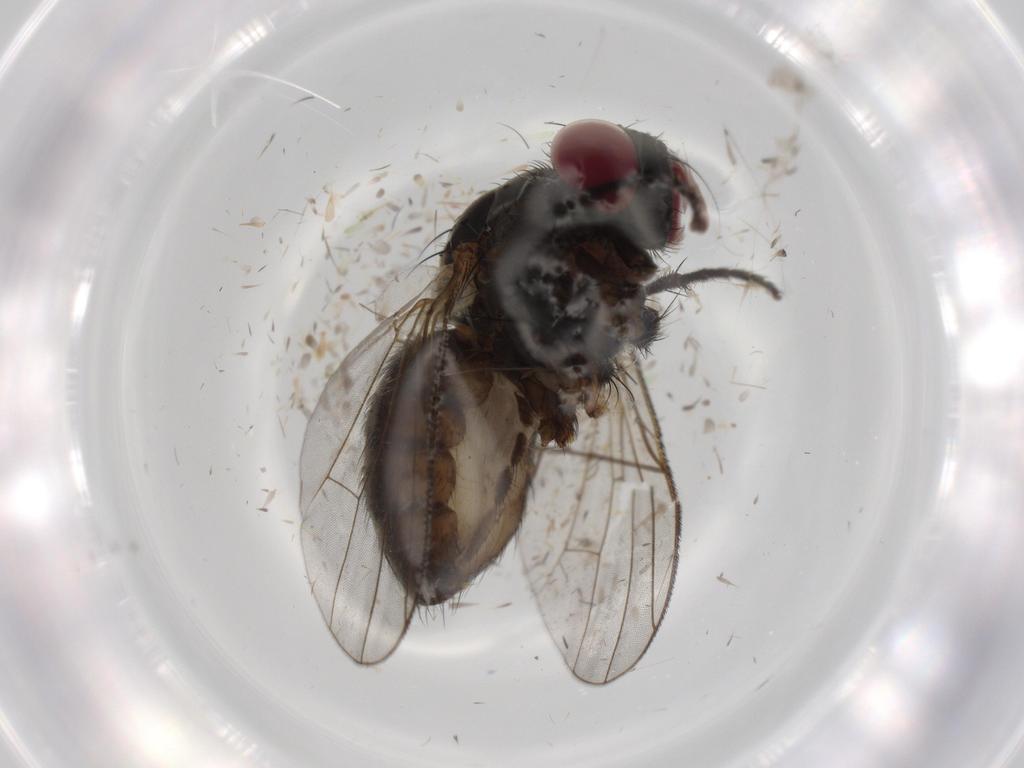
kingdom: Animalia
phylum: Arthropoda
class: Insecta
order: Diptera
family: Muscidae
